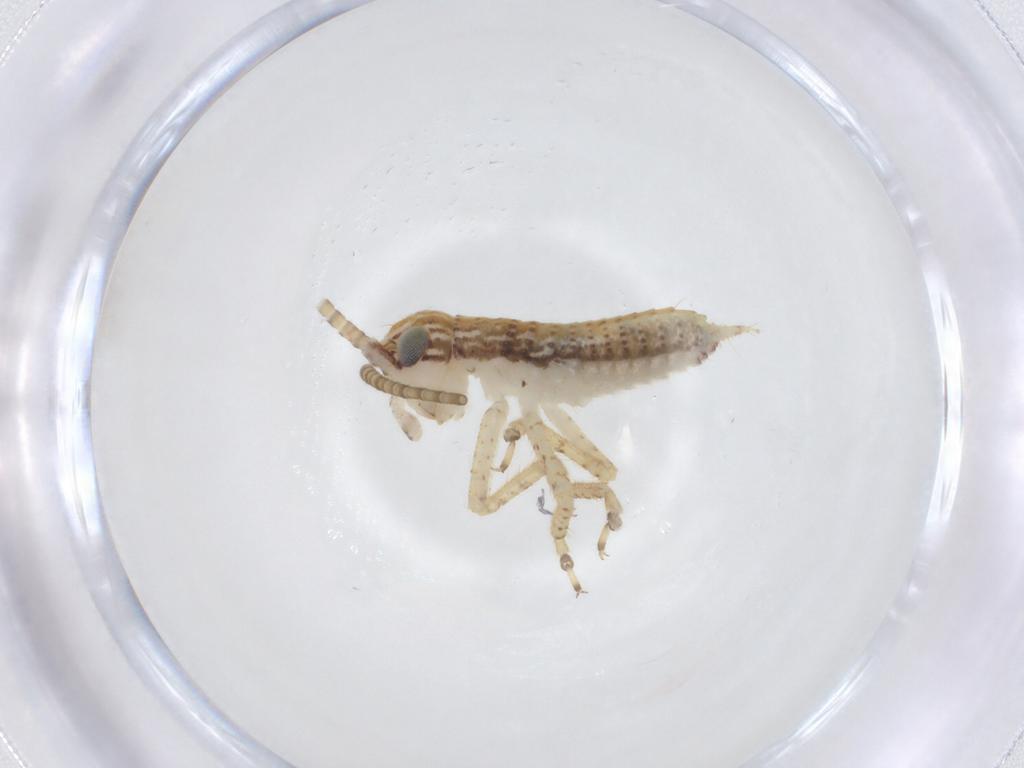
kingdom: Animalia
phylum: Arthropoda
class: Insecta
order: Orthoptera
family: Gryllidae
